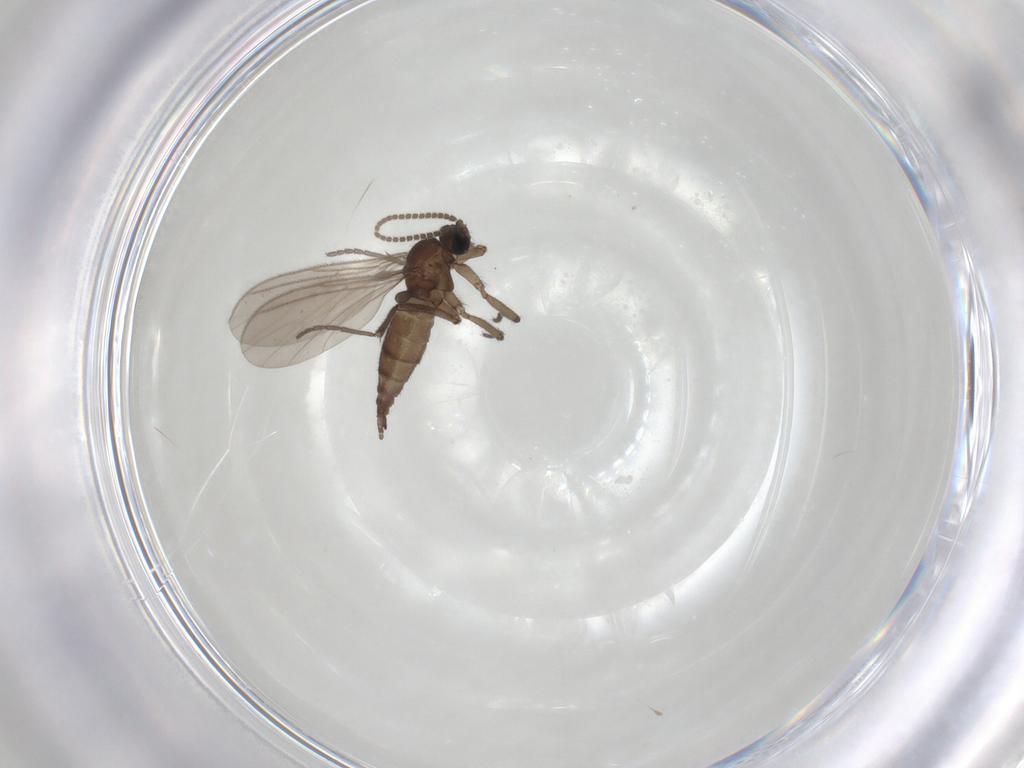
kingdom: Animalia
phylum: Arthropoda
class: Insecta
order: Diptera
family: Sciaridae
